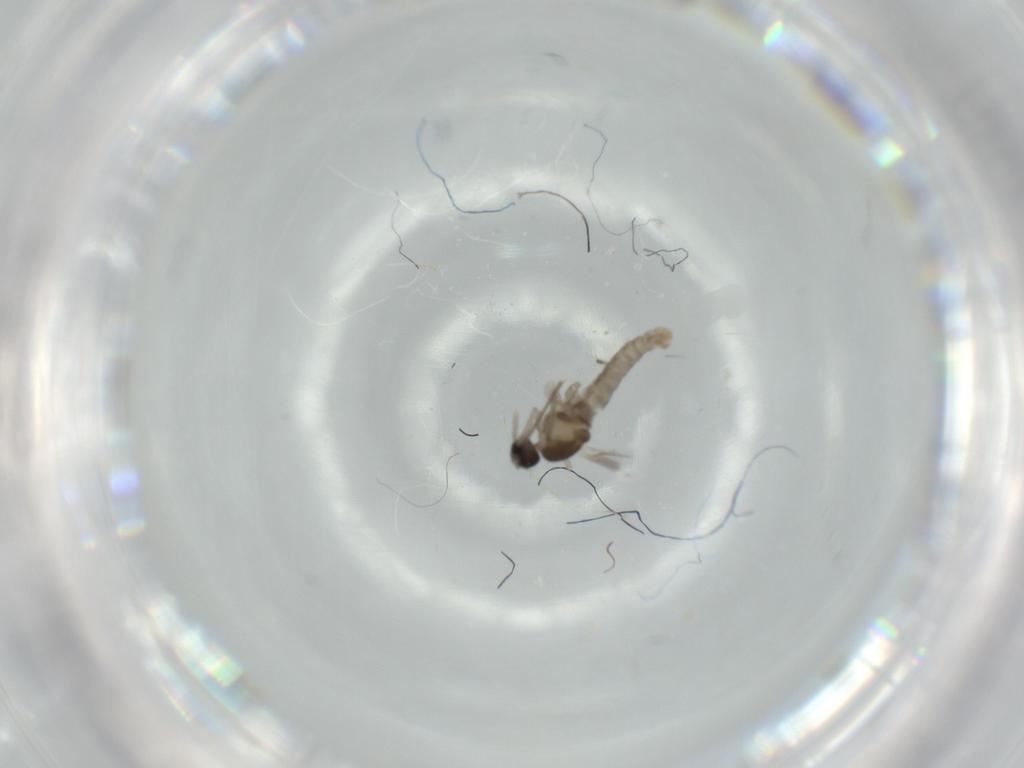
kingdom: Animalia
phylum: Arthropoda
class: Insecta
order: Diptera
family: Cecidomyiidae
